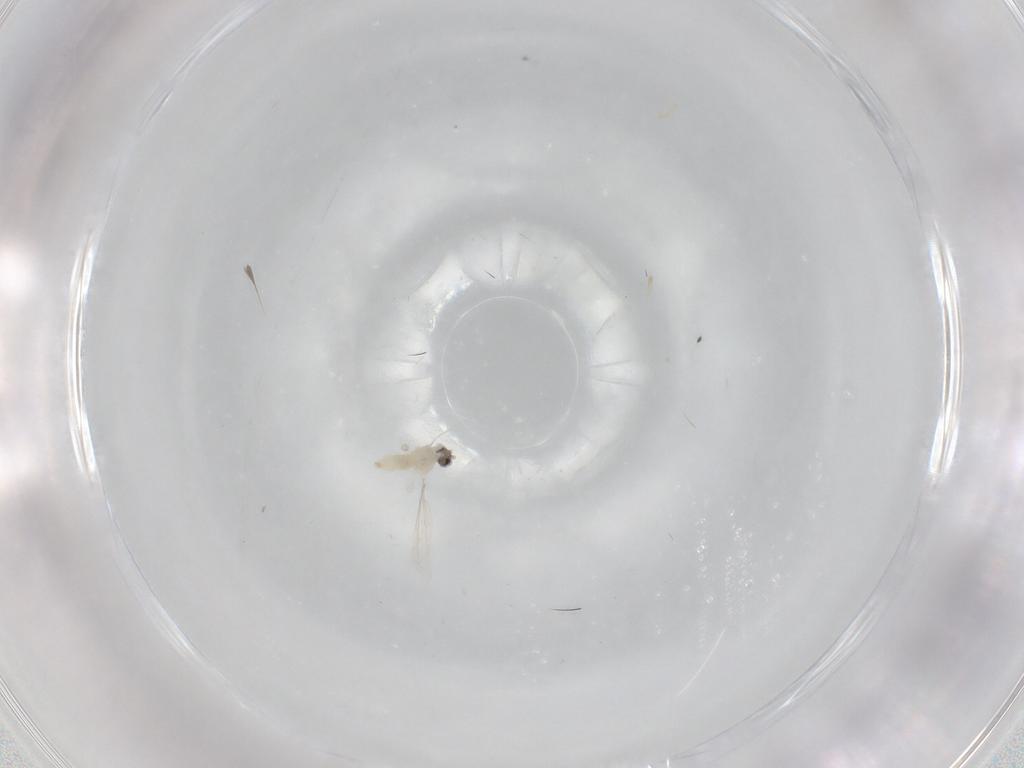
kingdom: Animalia
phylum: Arthropoda
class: Insecta
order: Diptera
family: Cecidomyiidae
